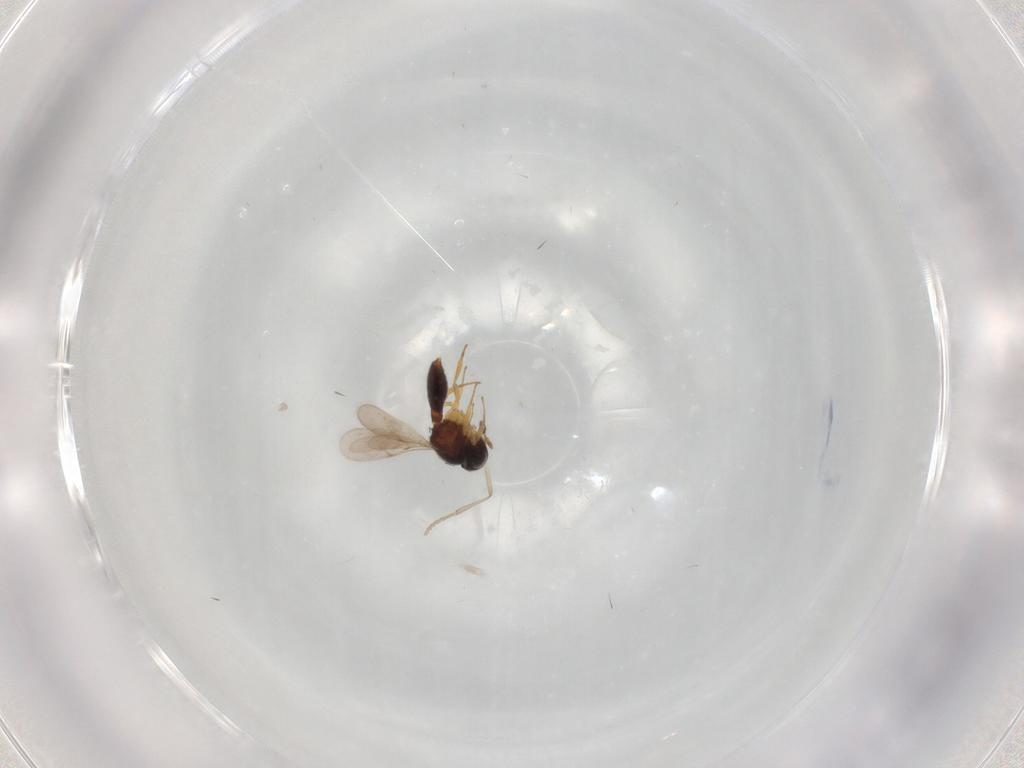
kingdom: Animalia
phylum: Arthropoda
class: Insecta
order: Hymenoptera
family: Scelionidae
